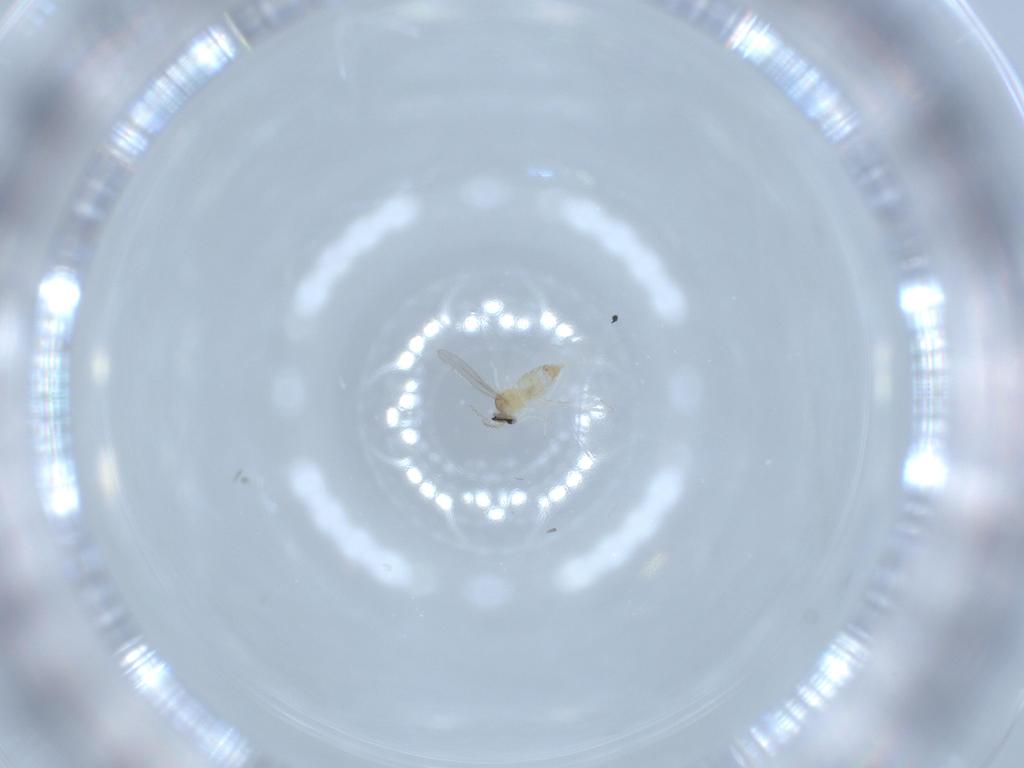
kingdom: Animalia
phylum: Arthropoda
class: Insecta
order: Diptera
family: Cecidomyiidae
